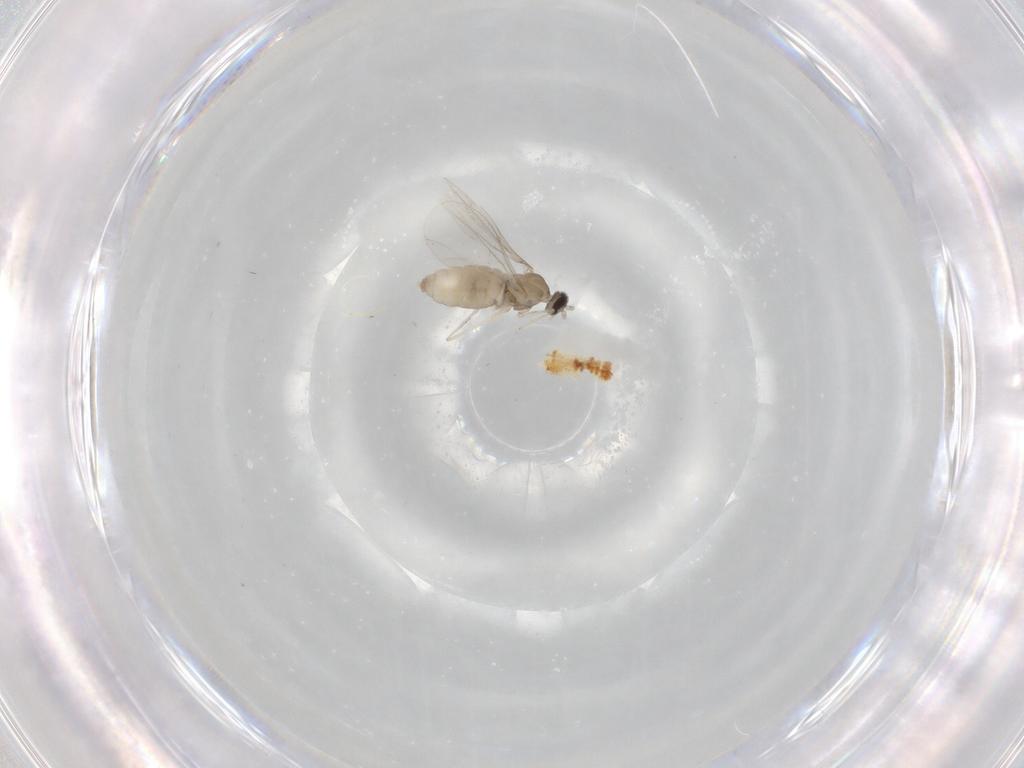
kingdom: Animalia
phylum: Arthropoda
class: Insecta
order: Diptera
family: Cecidomyiidae
